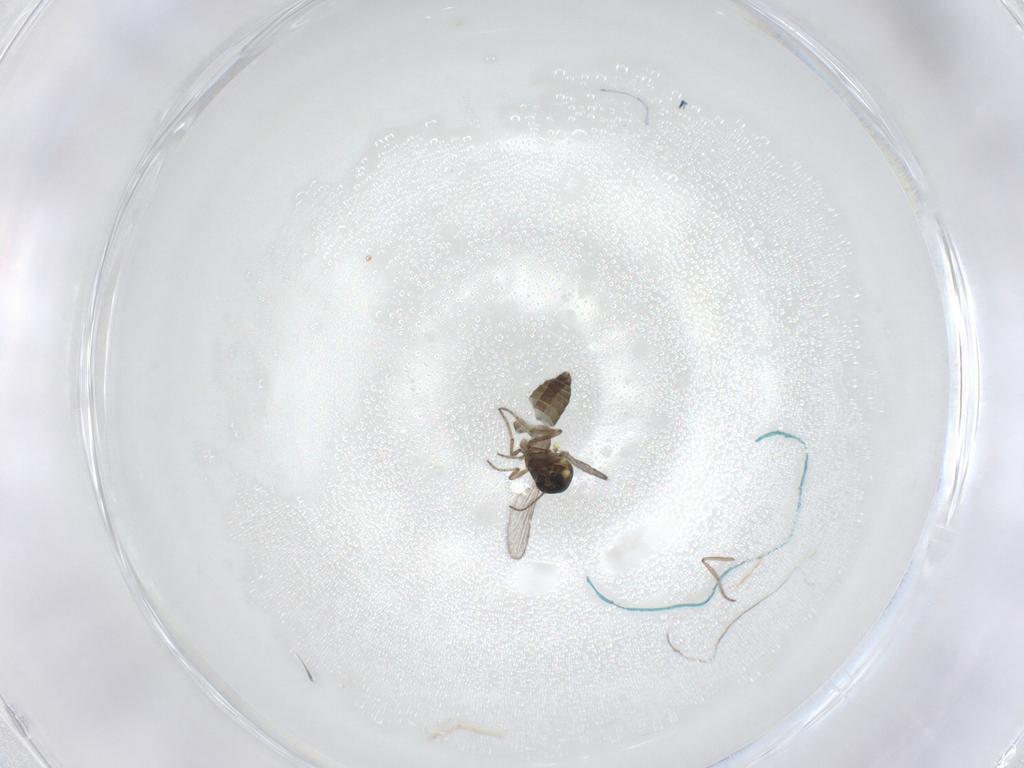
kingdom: Animalia
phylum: Arthropoda
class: Insecta
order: Diptera
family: Ceratopogonidae
